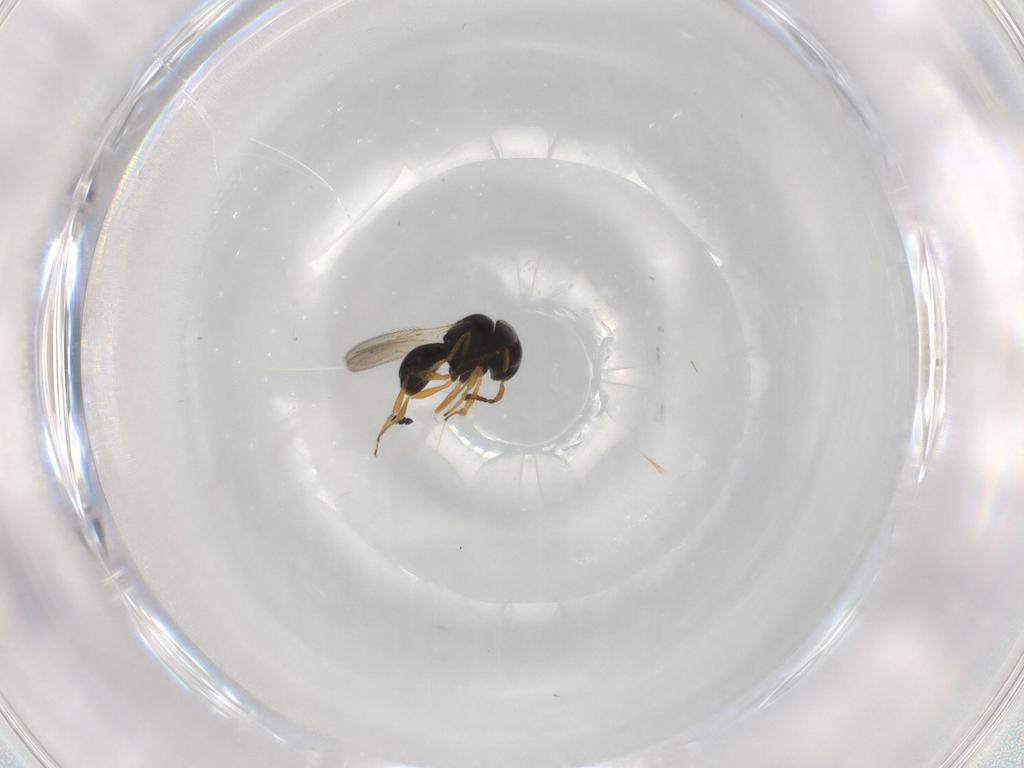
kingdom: Animalia
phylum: Arthropoda
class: Insecta
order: Hymenoptera
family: Scelionidae
